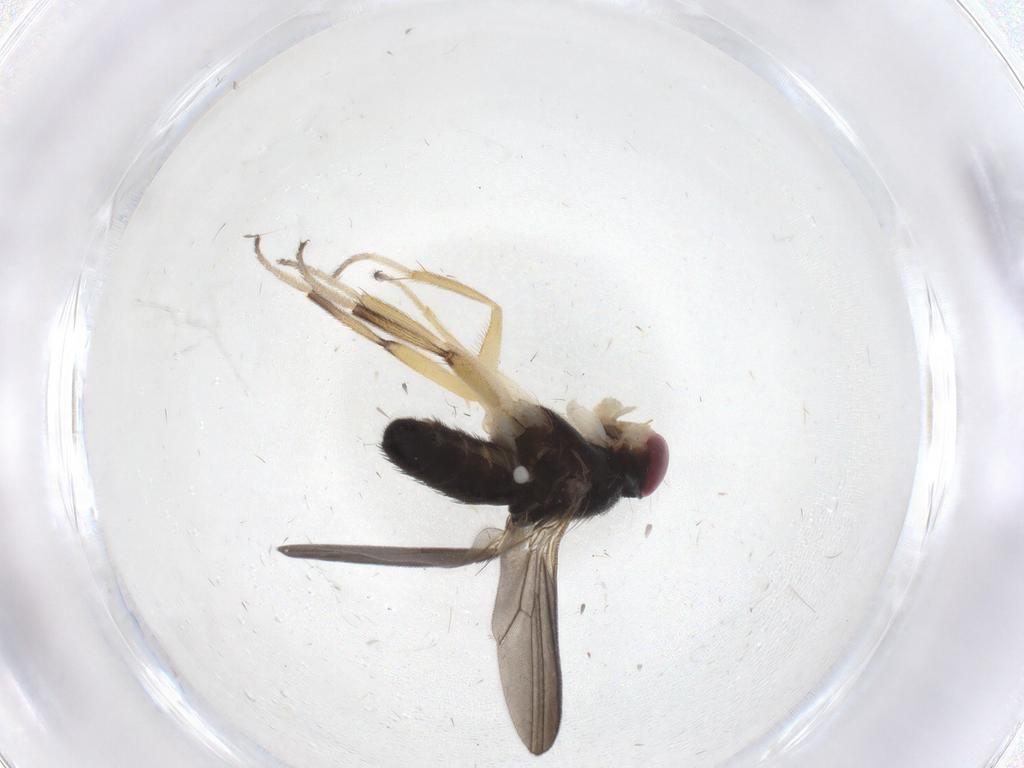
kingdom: Animalia
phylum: Arthropoda
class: Insecta
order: Diptera
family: Clusiidae
